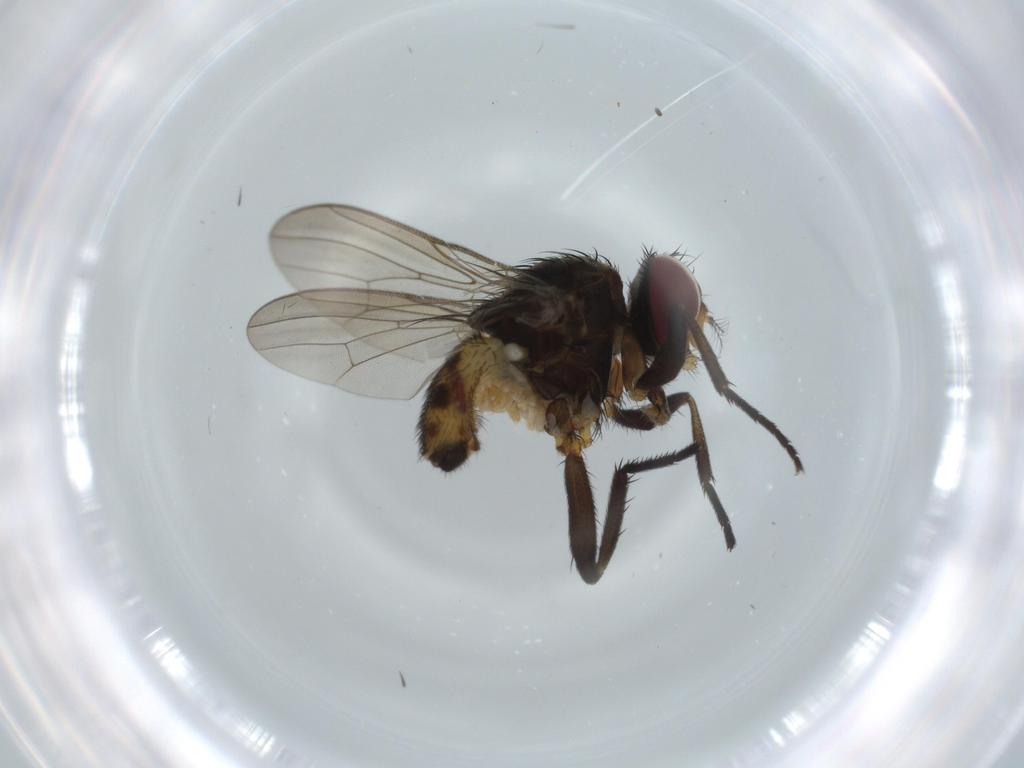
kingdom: Animalia
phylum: Arthropoda
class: Insecta
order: Diptera
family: Anthomyiidae
